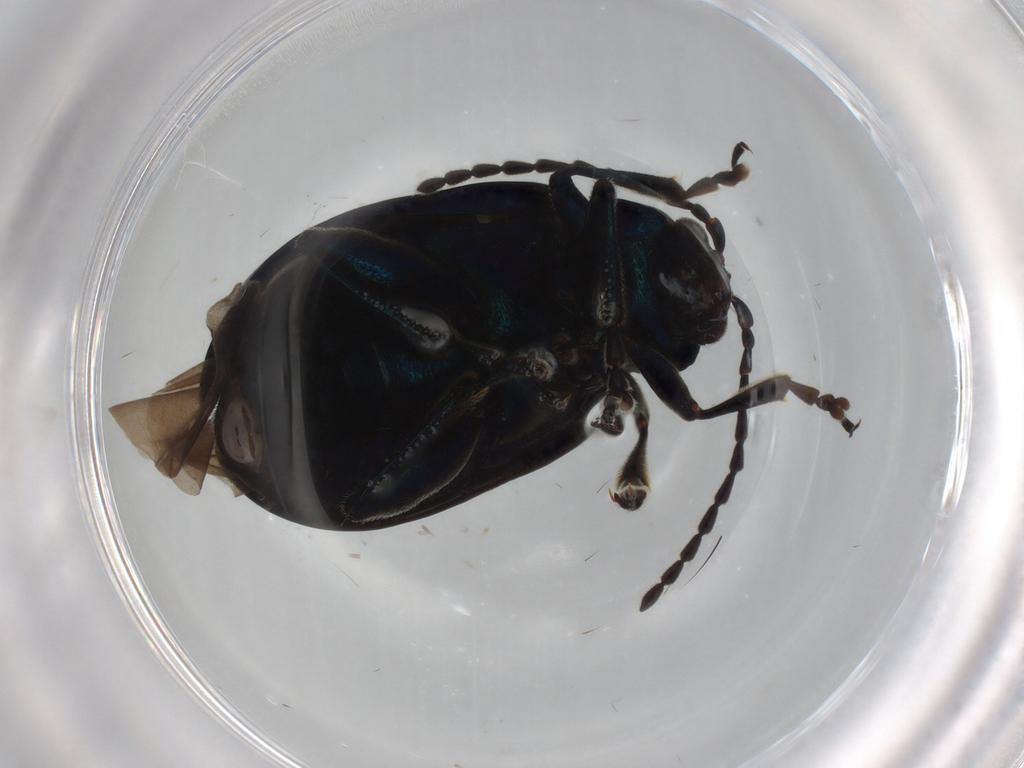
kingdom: Animalia
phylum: Arthropoda
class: Insecta
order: Coleoptera
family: Chrysomelidae
